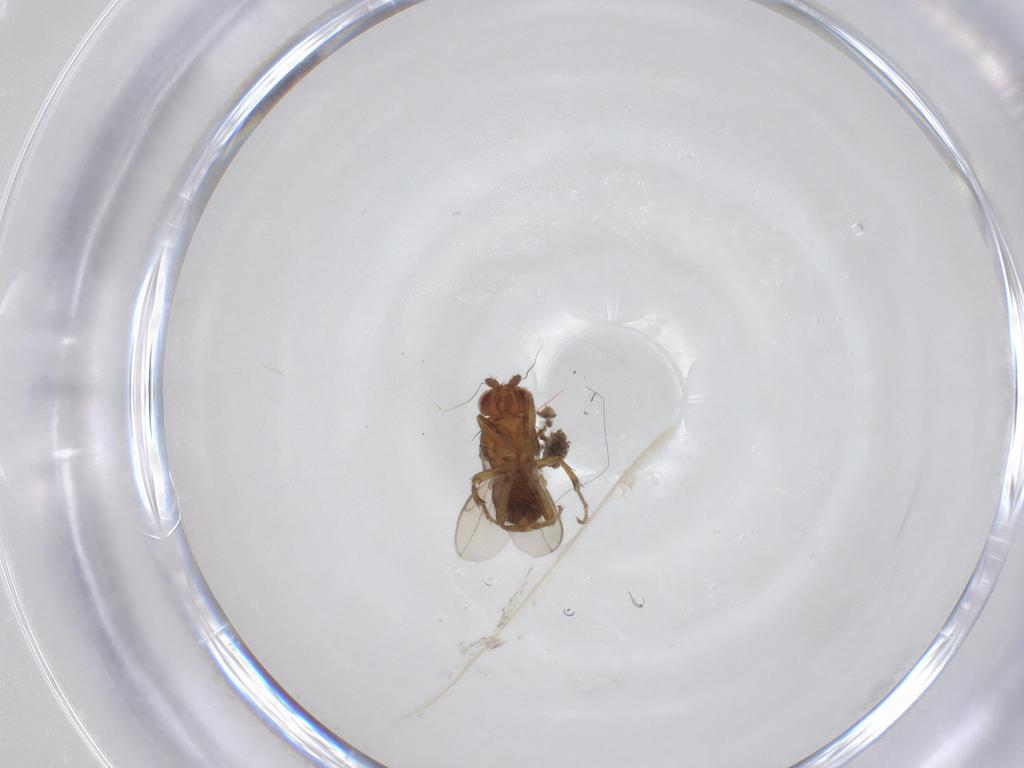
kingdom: Animalia
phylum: Arthropoda
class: Insecta
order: Diptera
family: Sphaeroceridae
